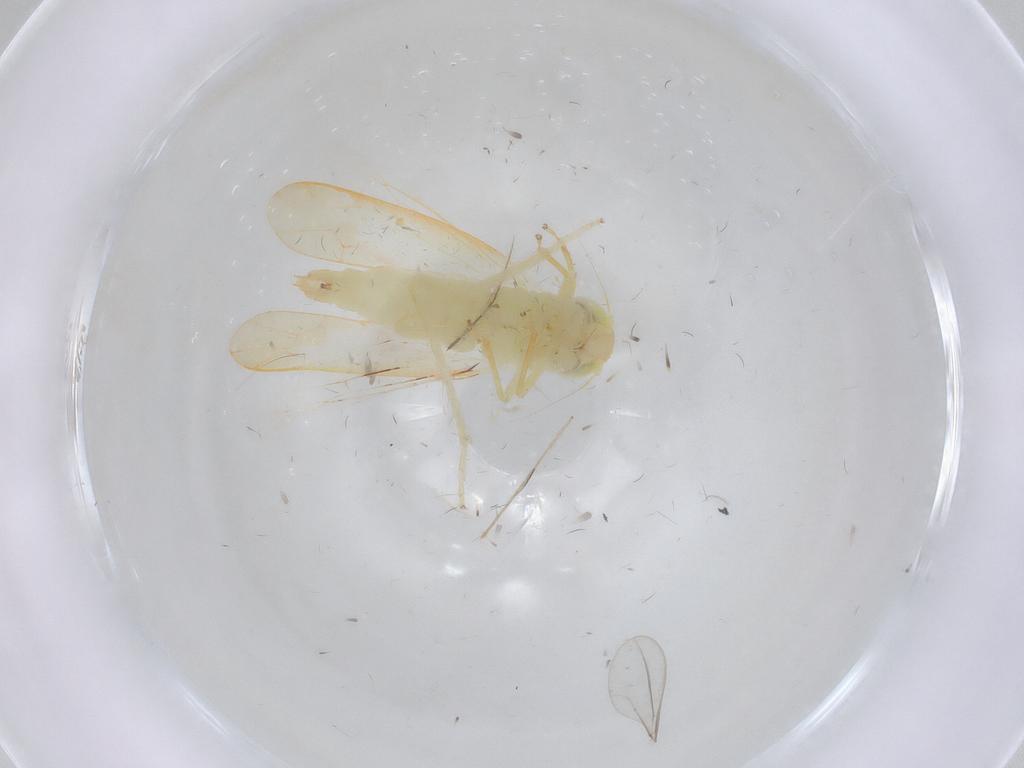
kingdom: Animalia
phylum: Arthropoda
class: Insecta
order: Hemiptera
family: Cicadellidae
